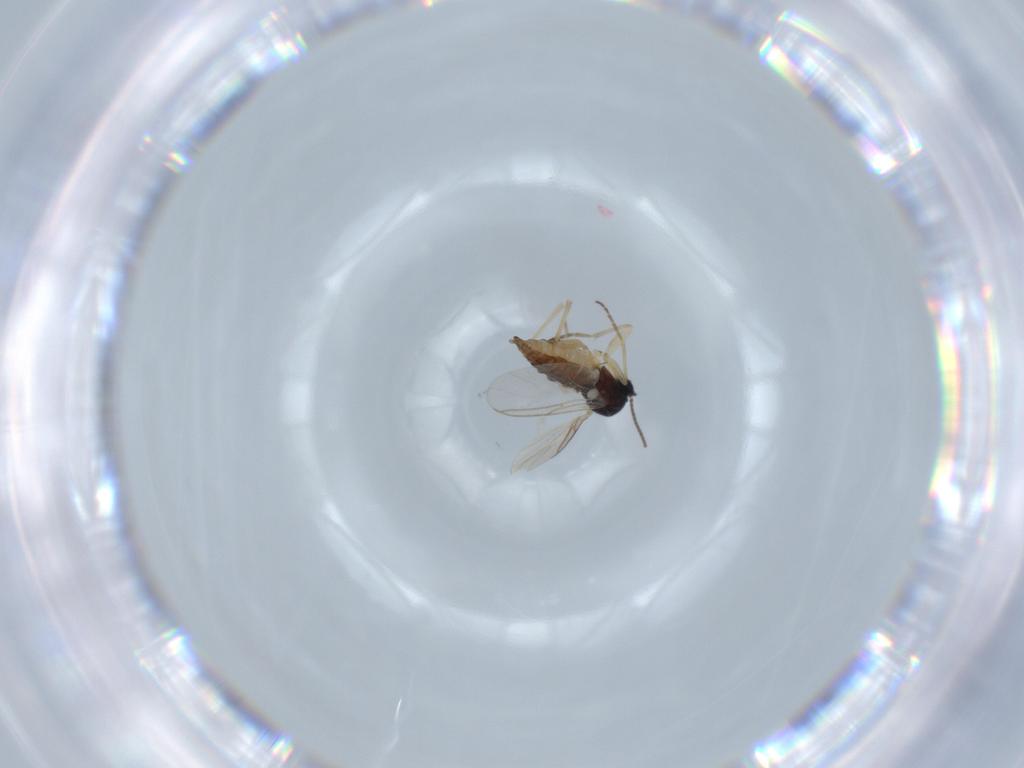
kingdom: Animalia
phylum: Arthropoda
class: Insecta
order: Diptera
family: Sciaridae
